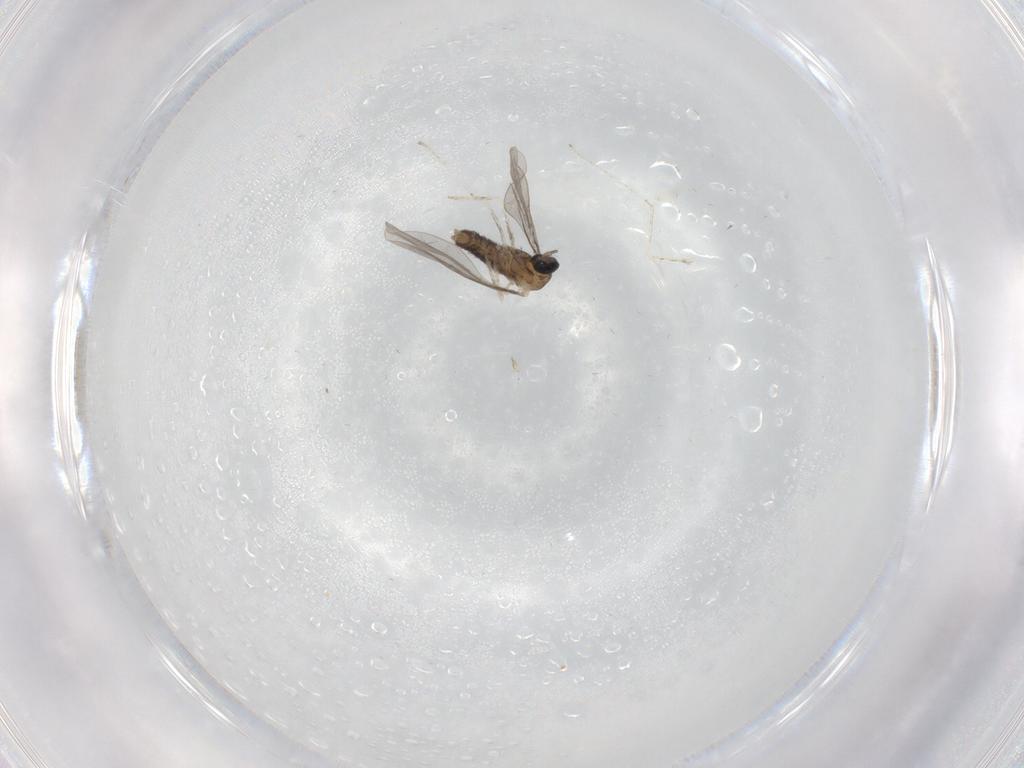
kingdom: Animalia
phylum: Arthropoda
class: Insecta
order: Diptera
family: Cecidomyiidae
